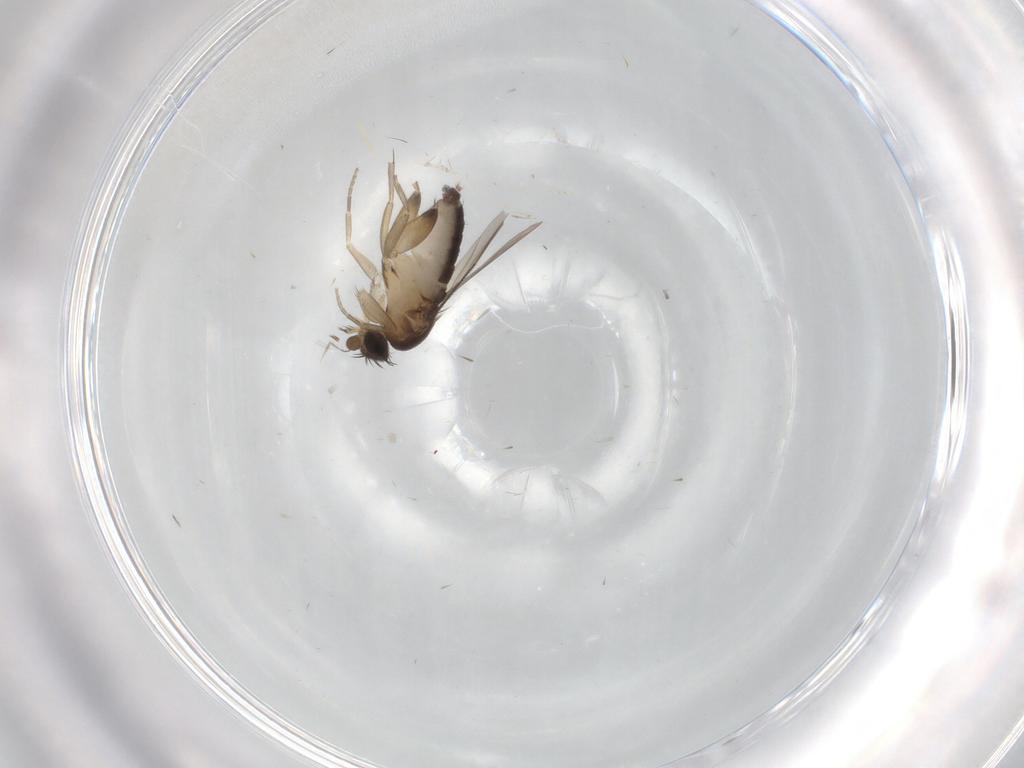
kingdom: Animalia
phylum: Arthropoda
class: Insecta
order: Diptera
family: Phoridae
